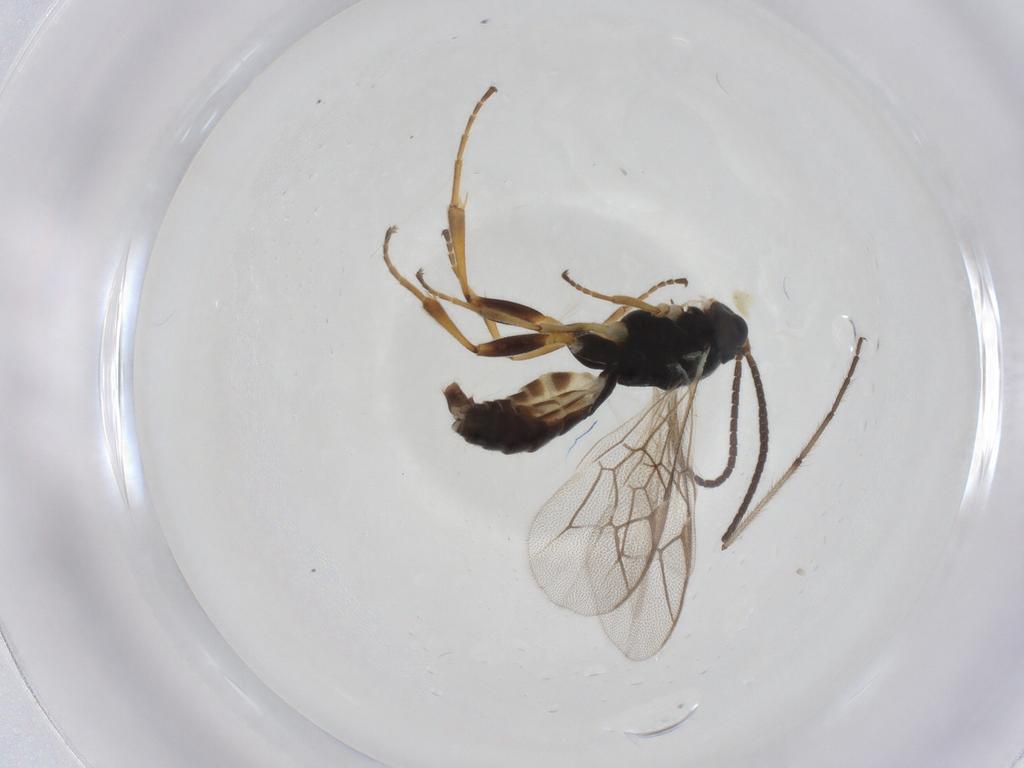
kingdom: Animalia
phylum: Arthropoda
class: Insecta
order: Hymenoptera
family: Ichneumonidae
